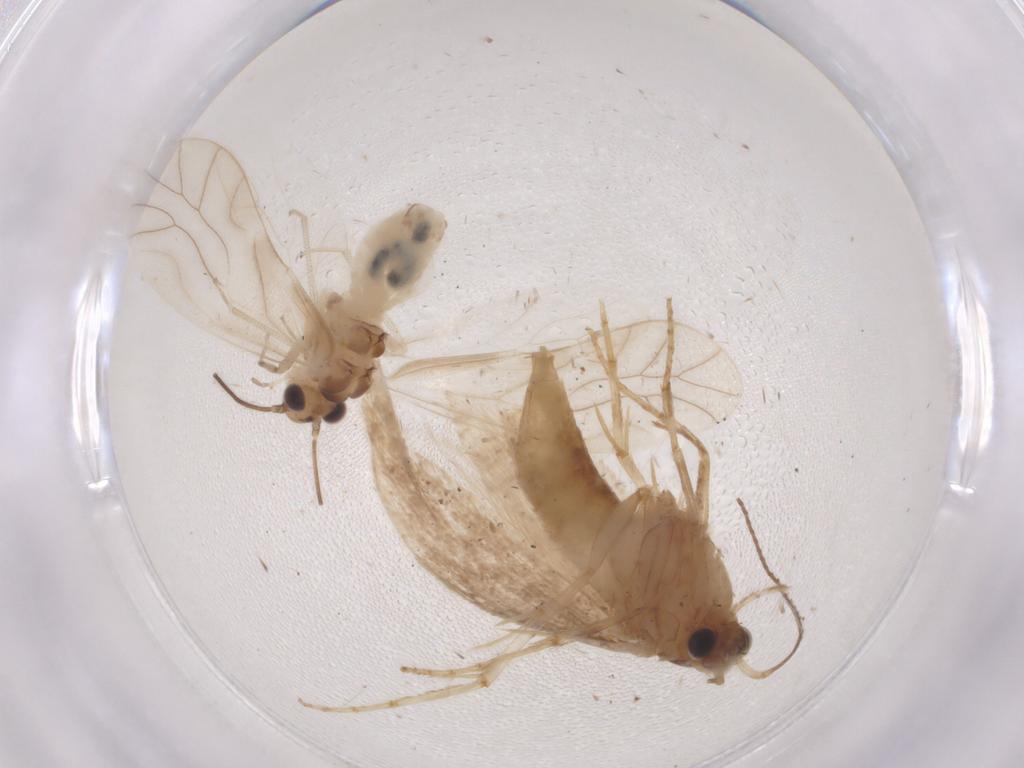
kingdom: Animalia
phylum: Arthropoda
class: Insecta
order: Psocodea
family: Caeciliusidae
